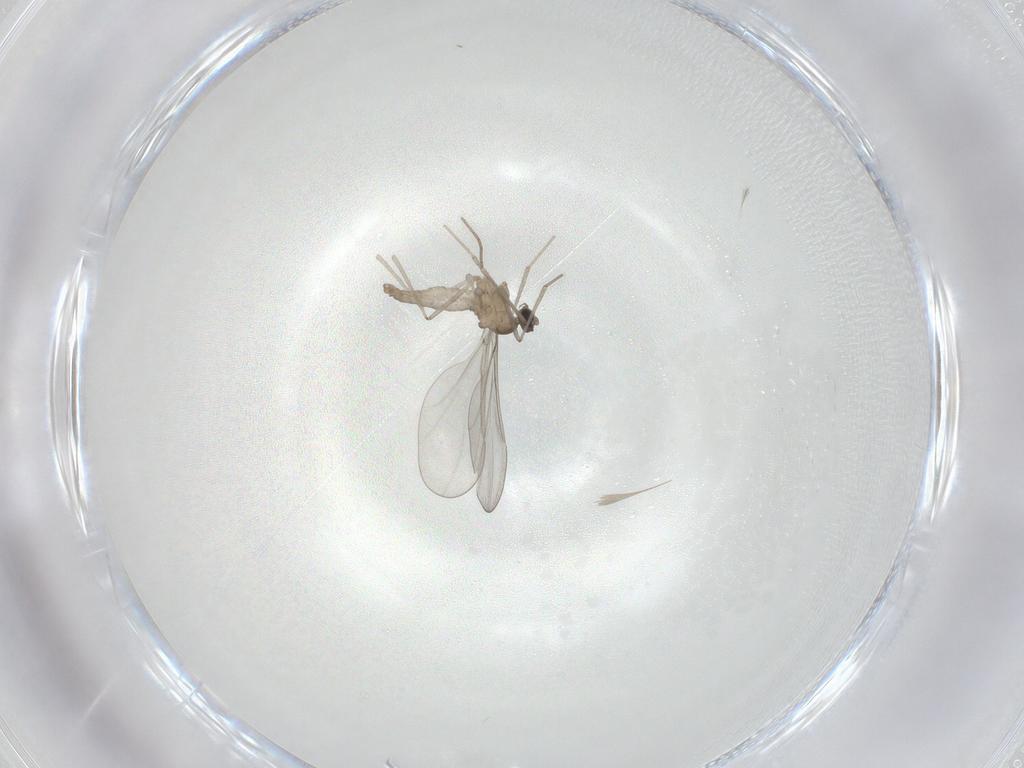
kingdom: Animalia
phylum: Arthropoda
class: Insecta
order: Diptera
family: Cecidomyiidae
